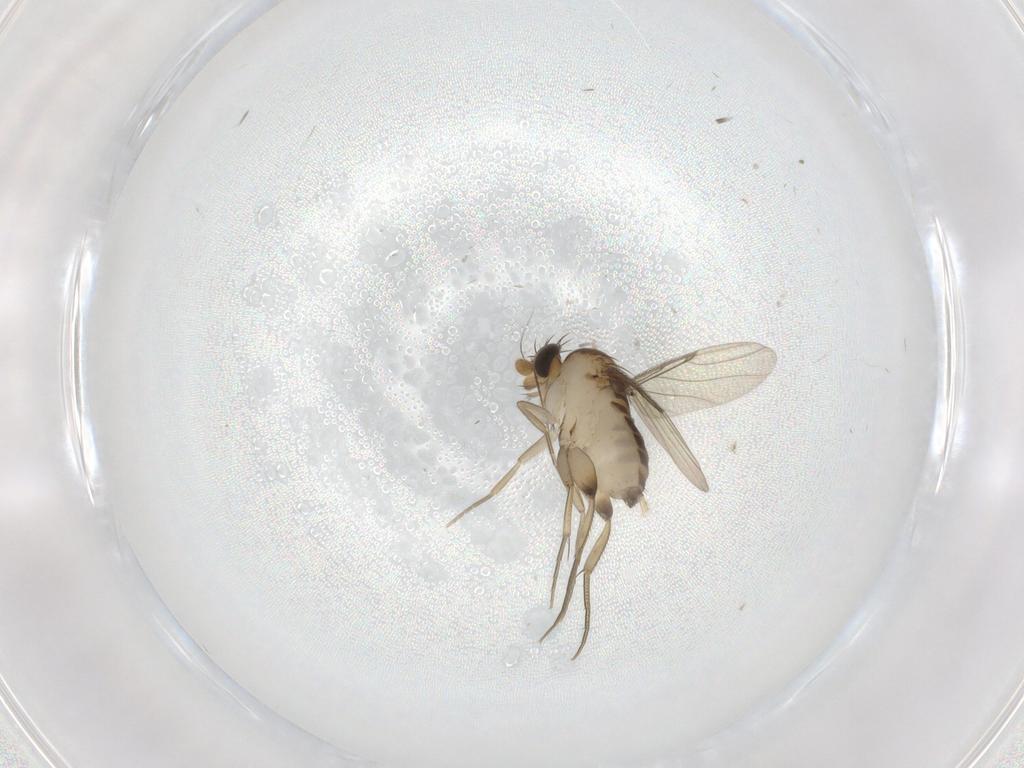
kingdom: Animalia
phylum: Arthropoda
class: Insecta
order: Diptera
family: Phoridae
